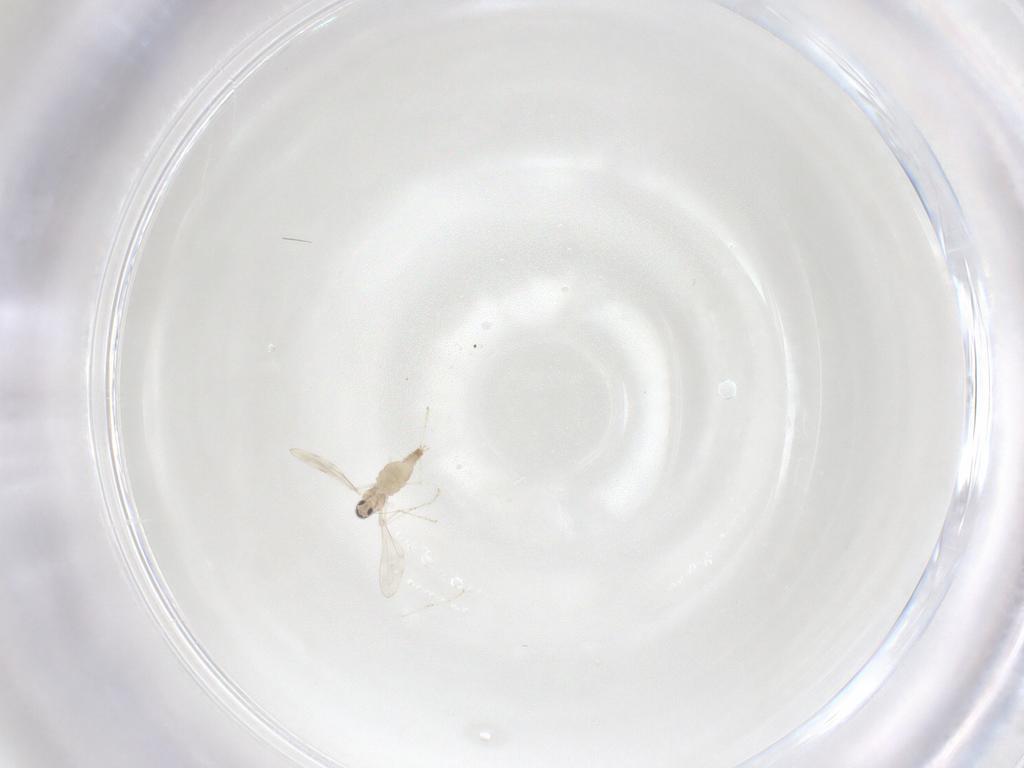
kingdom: Animalia
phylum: Arthropoda
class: Insecta
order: Diptera
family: Cecidomyiidae
